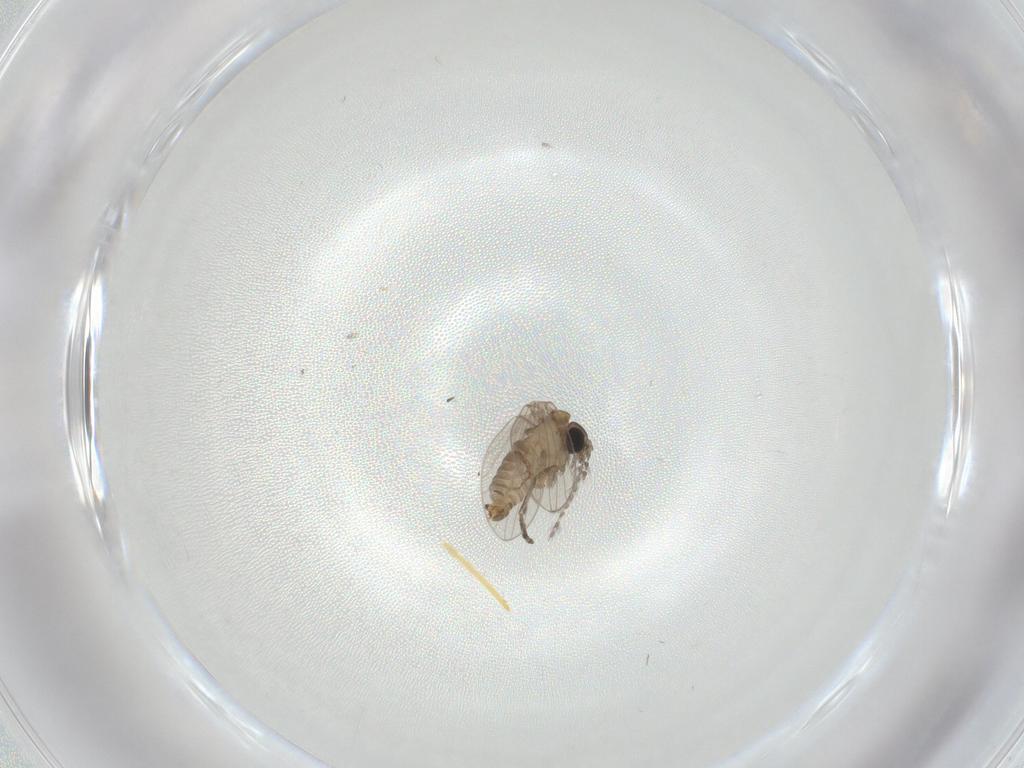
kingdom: Animalia
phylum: Arthropoda
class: Insecta
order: Diptera
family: Psychodidae
